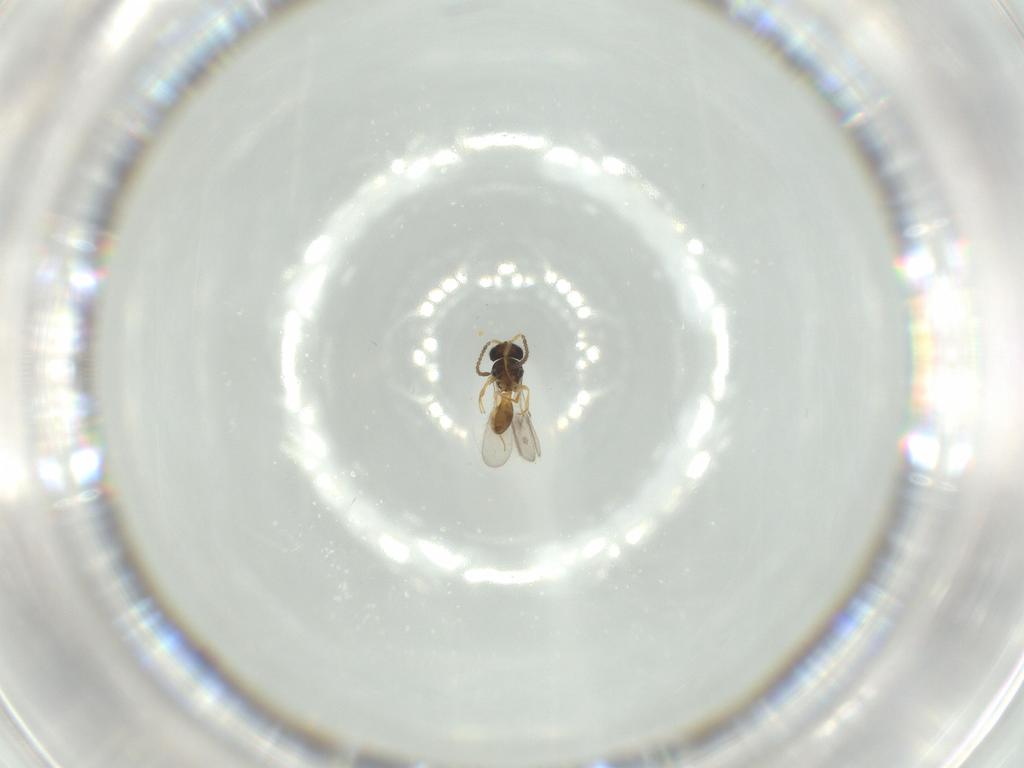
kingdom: Animalia
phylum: Arthropoda
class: Insecta
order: Hymenoptera
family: Scelionidae
